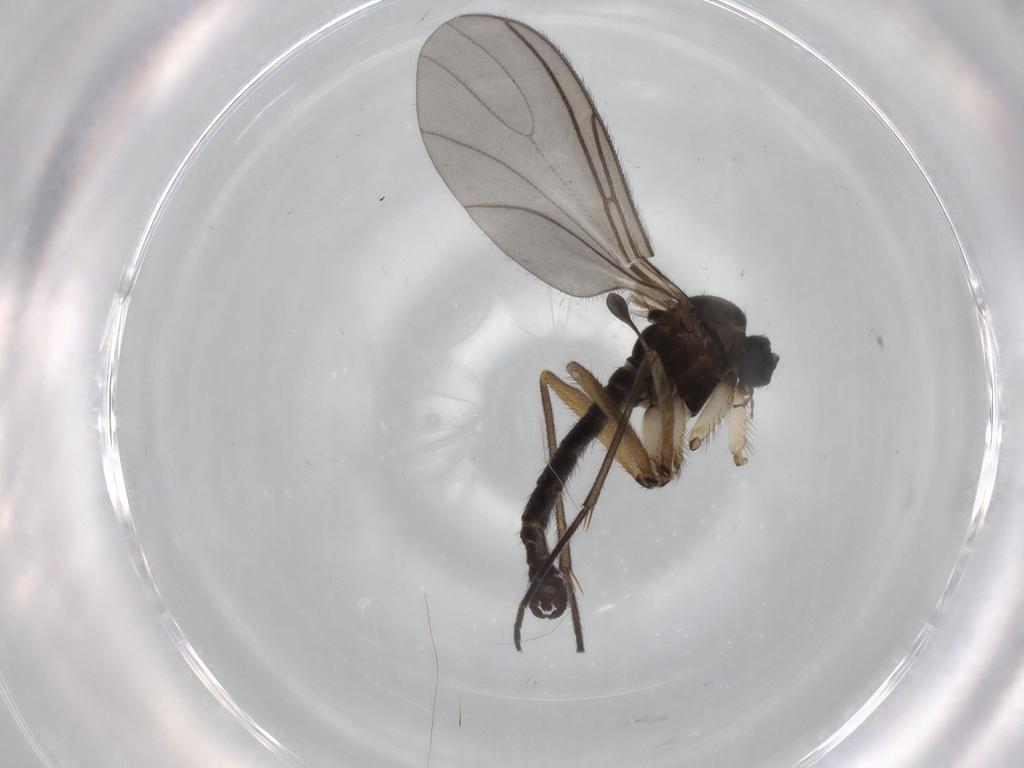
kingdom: Animalia
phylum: Arthropoda
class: Insecta
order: Diptera
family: Sciaridae
